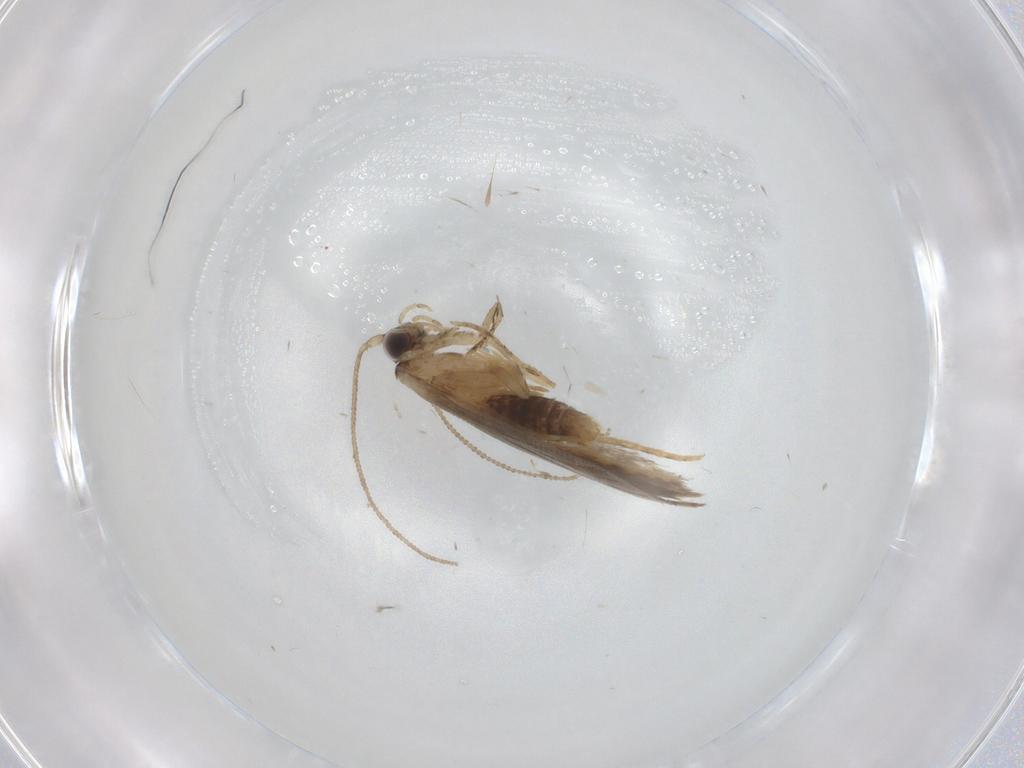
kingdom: Animalia
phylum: Arthropoda
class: Insecta
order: Lepidoptera
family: Tineidae
